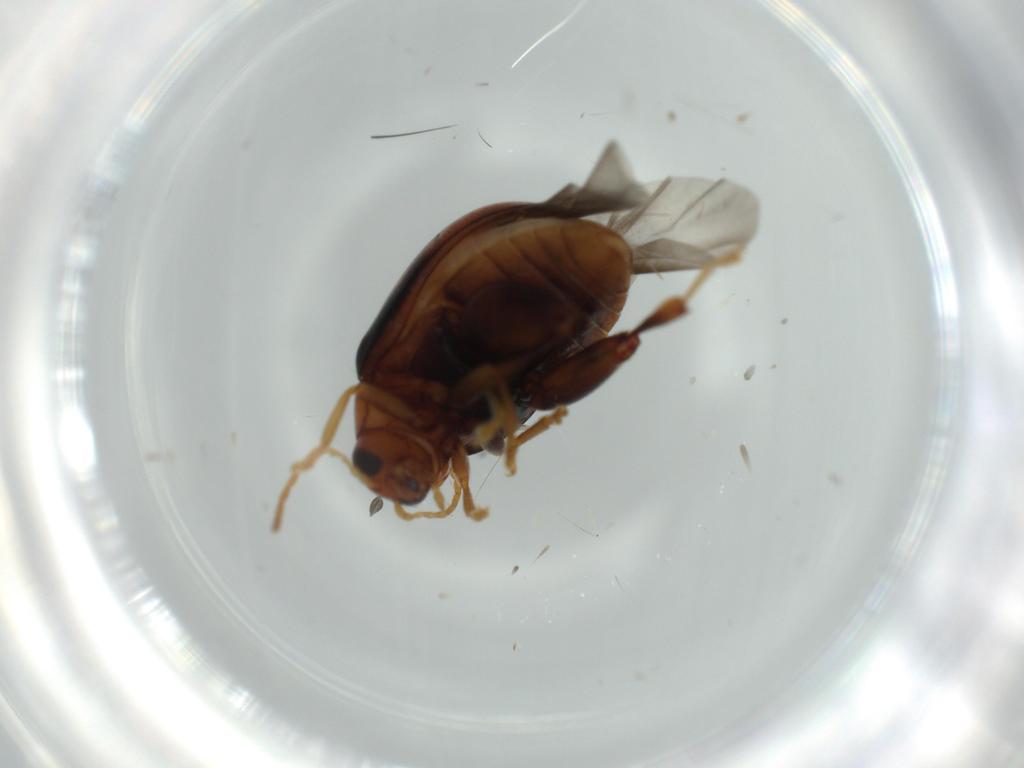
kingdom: Animalia
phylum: Arthropoda
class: Insecta
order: Coleoptera
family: Chrysomelidae
